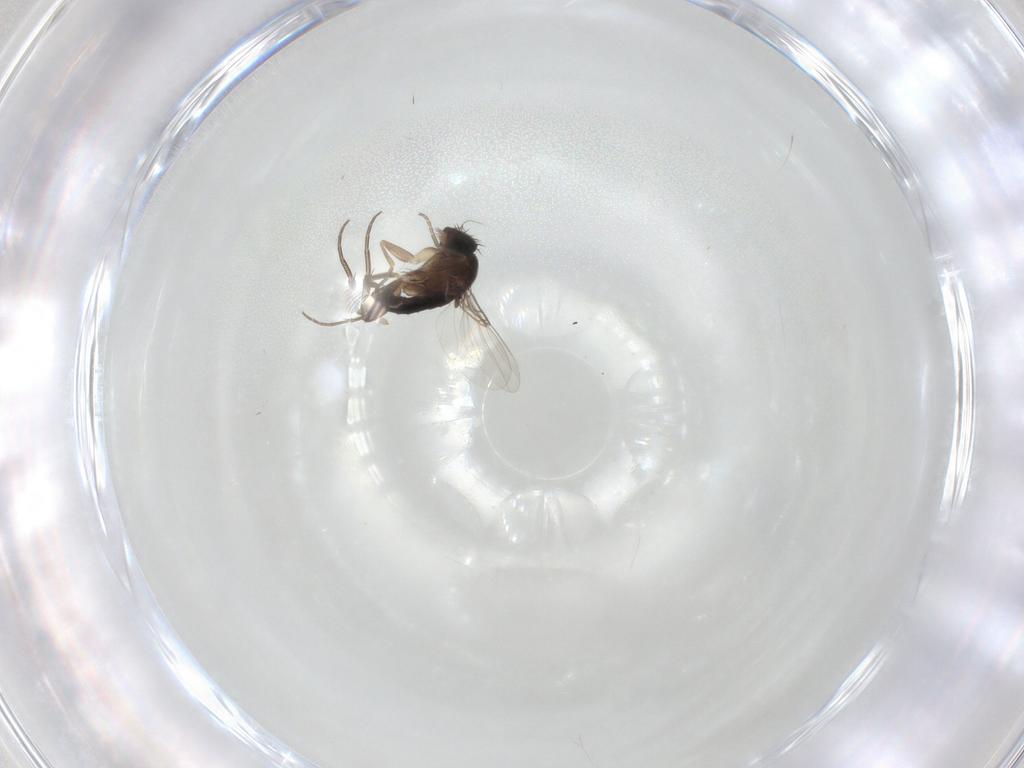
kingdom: Animalia
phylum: Arthropoda
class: Insecta
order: Diptera
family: Phoridae
